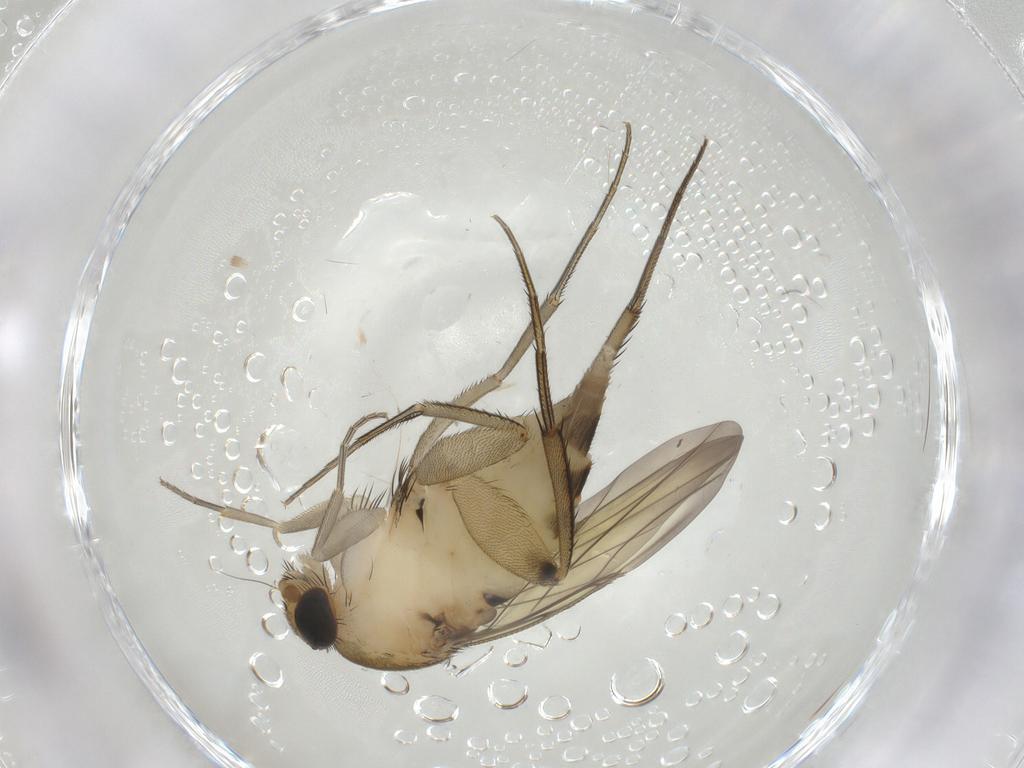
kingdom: Animalia
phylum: Arthropoda
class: Insecta
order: Diptera
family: Phoridae
